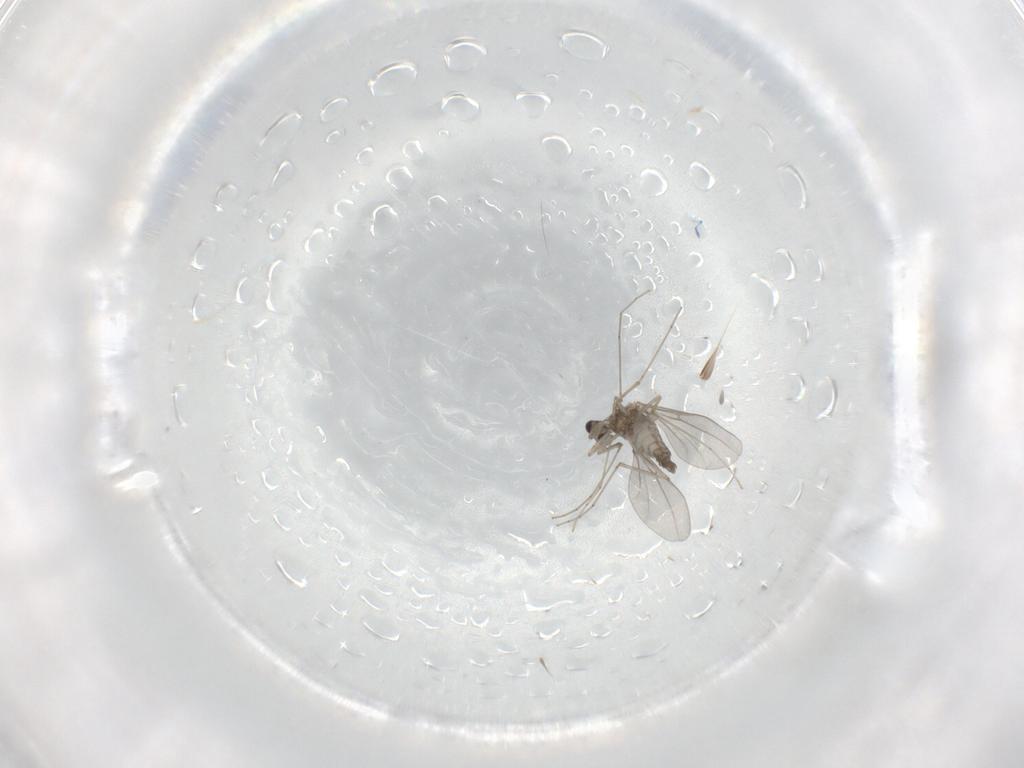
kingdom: Animalia
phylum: Arthropoda
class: Insecta
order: Diptera
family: Cecidomyiidae
